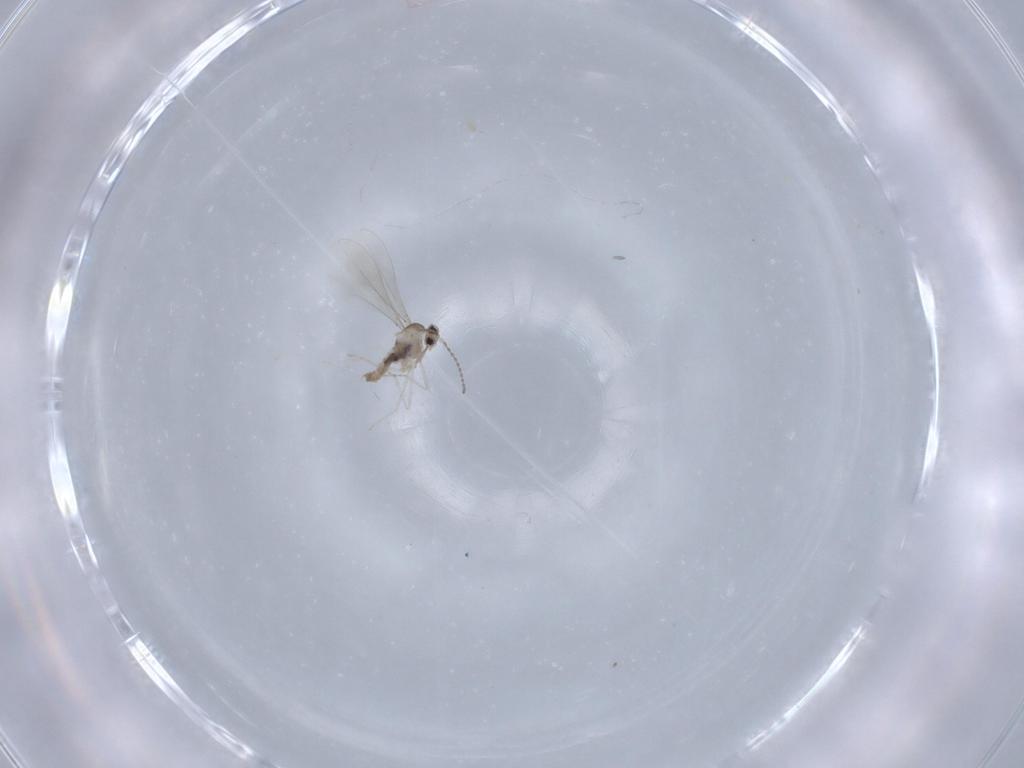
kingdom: Animalia
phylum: Arthropoda
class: Insecta
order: Diptera
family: Cecidomyiidae
